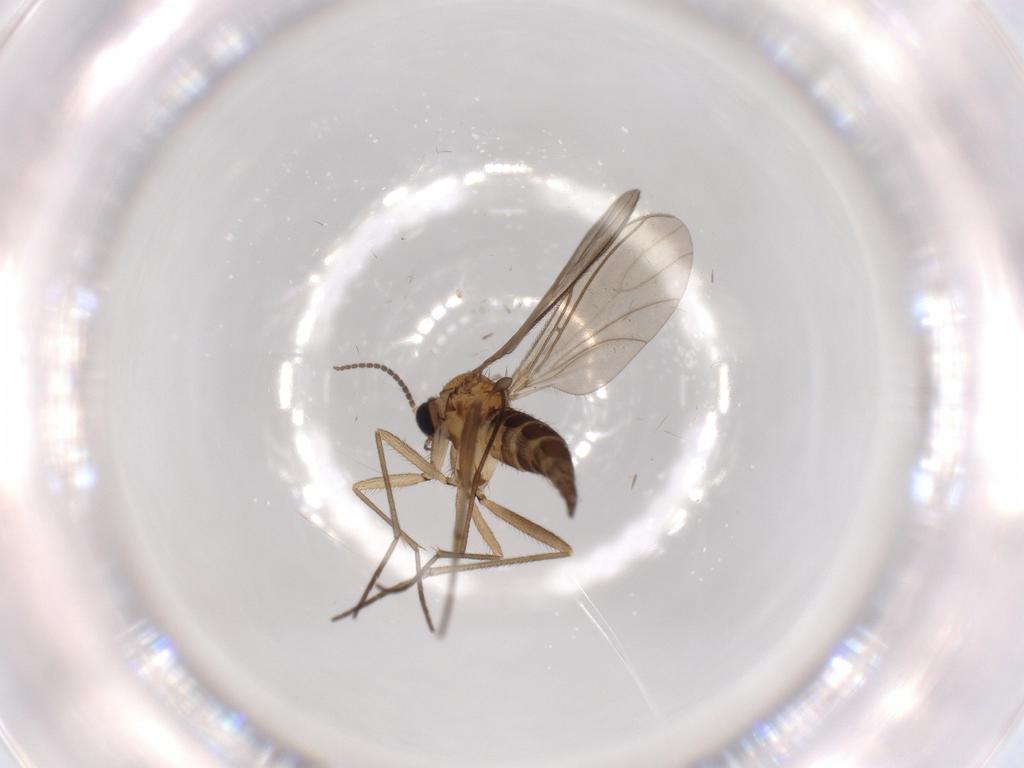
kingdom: Animalia
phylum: Arthropoda
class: Insecta
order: Diptera
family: Sciaridae
